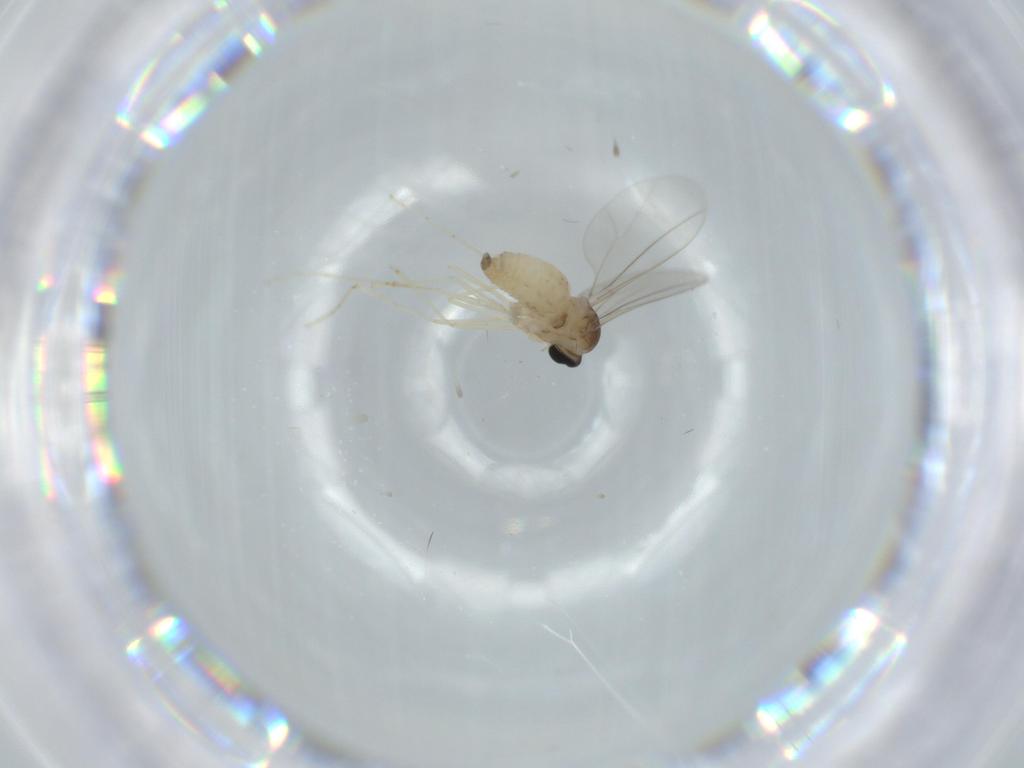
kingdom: Animalia
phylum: Arthropoda
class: Insecta
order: Diptera
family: Cecidomyiidae
